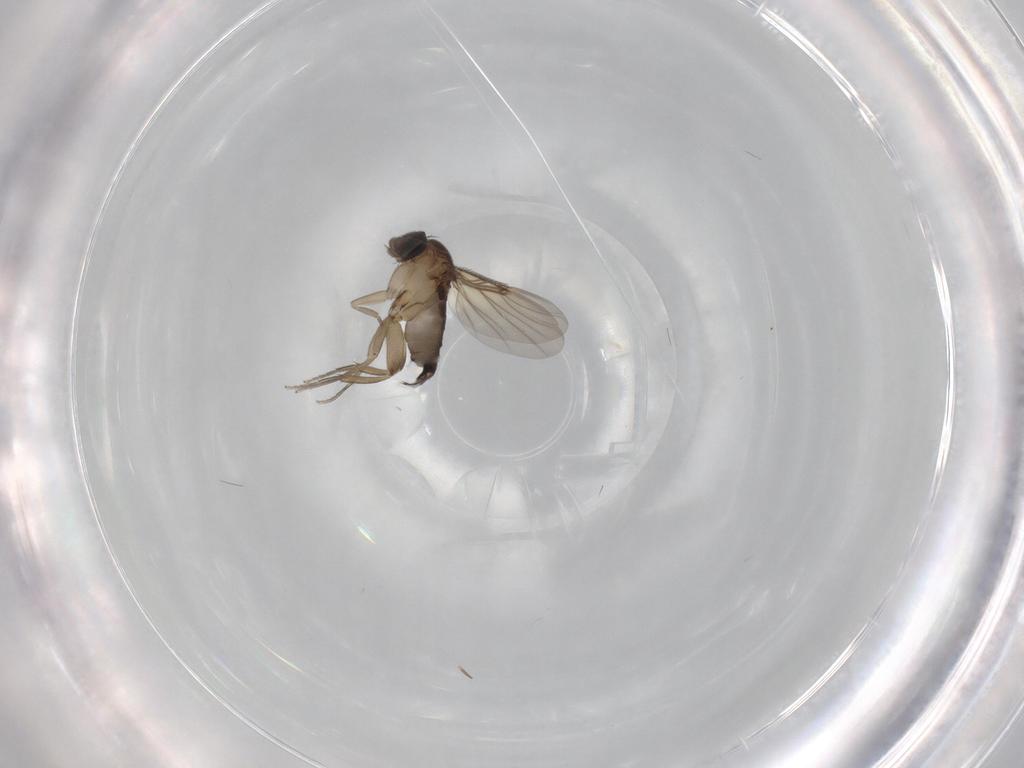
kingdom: Animalia
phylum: Arthropoda
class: Insecta
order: Diptera
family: Phoridae
